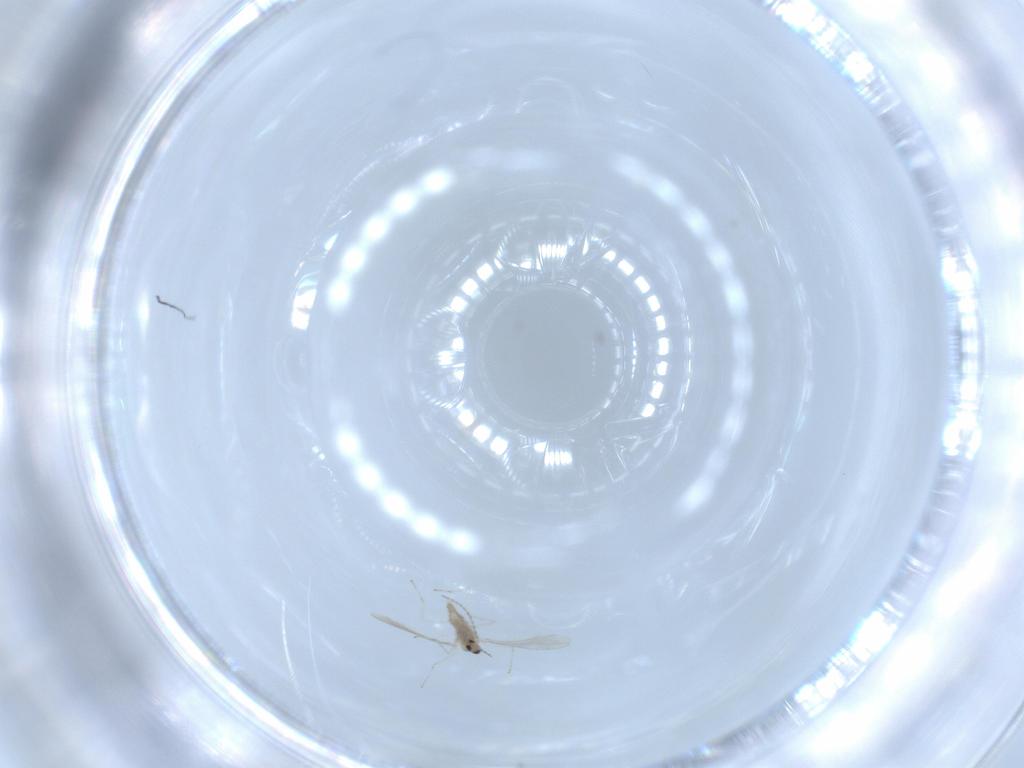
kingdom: Animalia
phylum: Arthropoda
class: Insecta
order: Diptera
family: Cecidomyiidae
